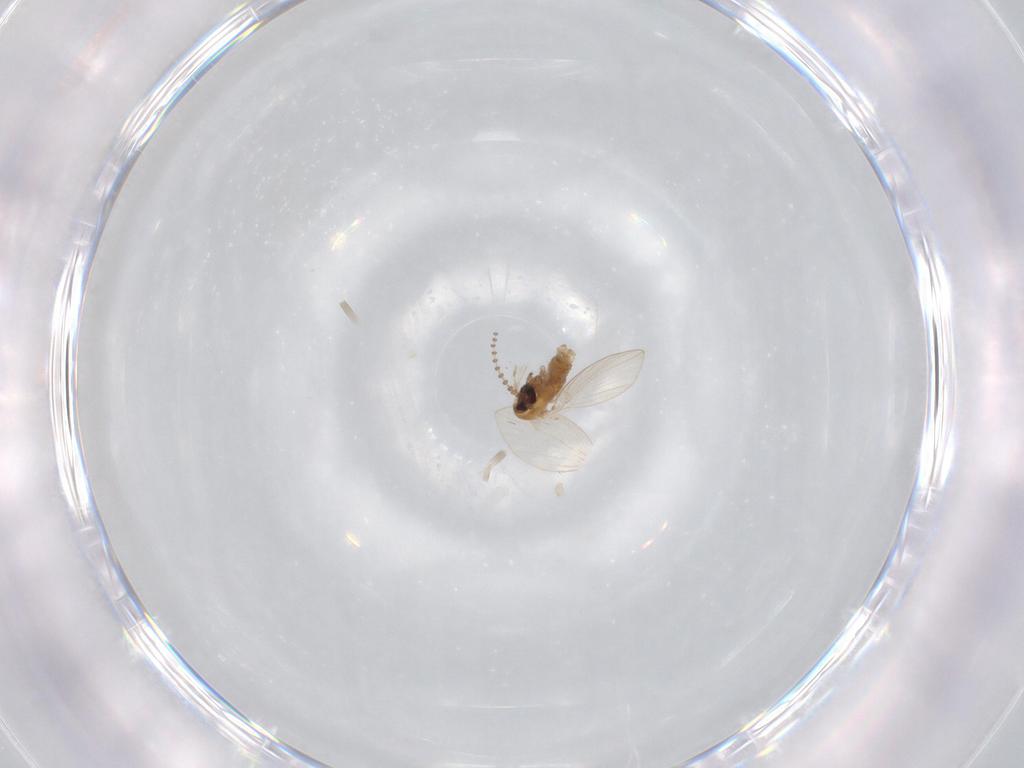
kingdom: Animalia
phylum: Arthropoda
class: Insecta
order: Diptera
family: Psychodidae
